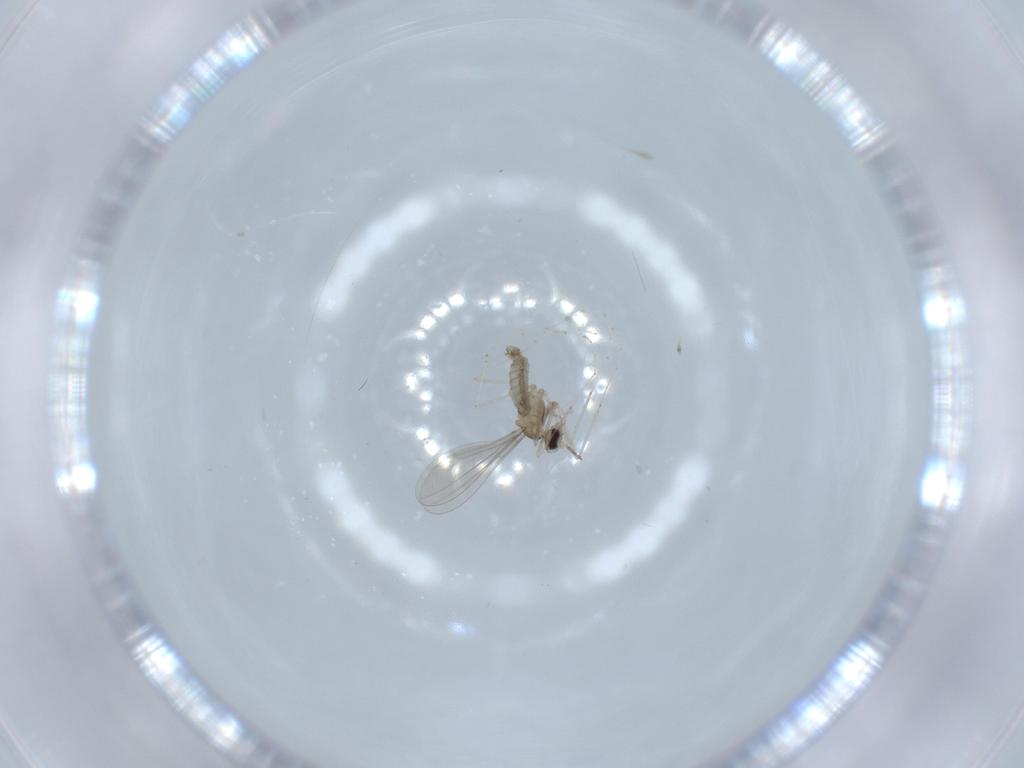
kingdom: Animalia
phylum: Arthropoda
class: Insecta
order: Diptera
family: Cecidomyiidae
